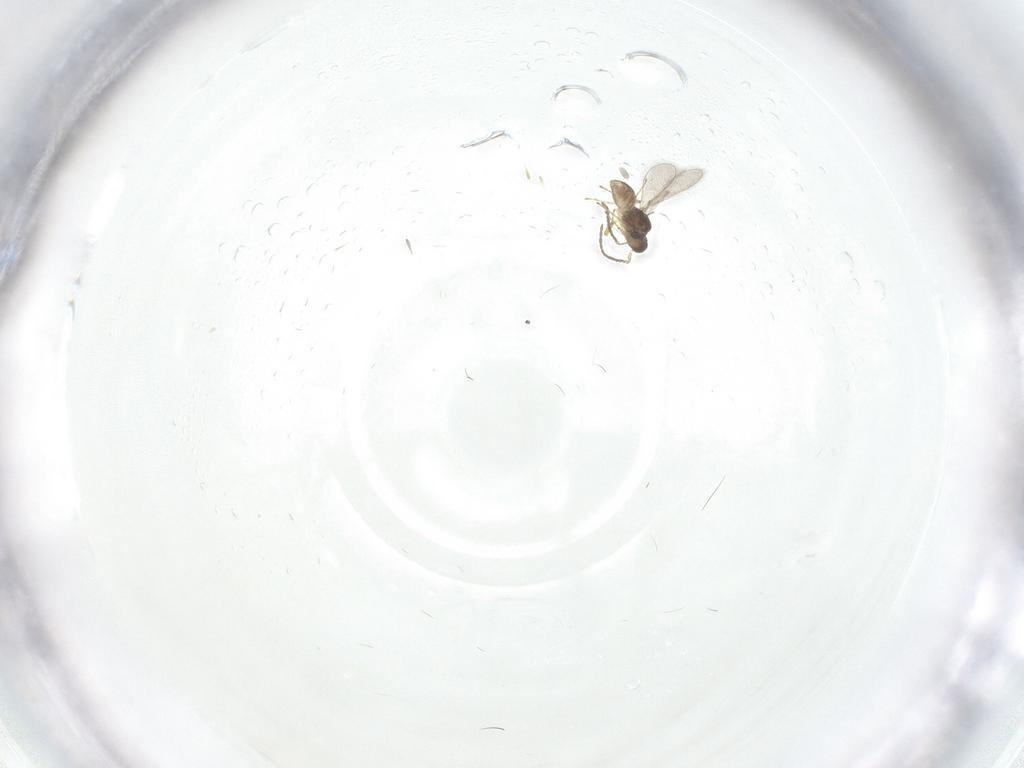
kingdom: Animalia
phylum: Arthropoda
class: Insecta
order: Hymenoptera
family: Mymaridae
